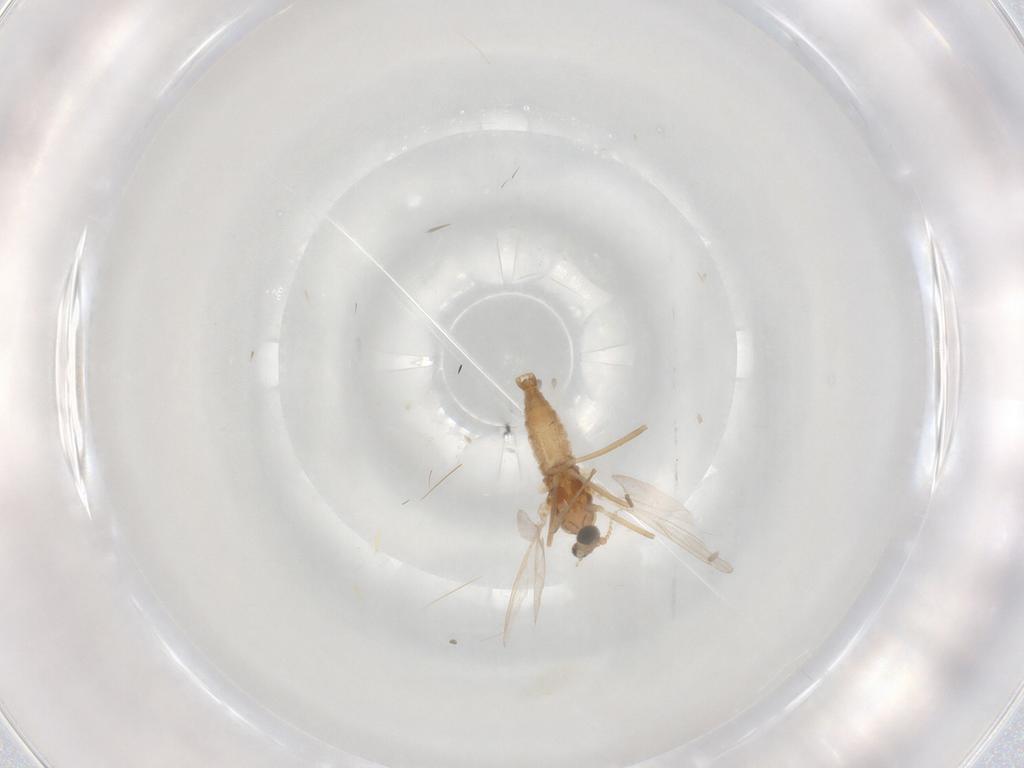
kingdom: Animalia
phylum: Arthropoda
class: Insecta
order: Diptera
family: Cecidomyiidae
